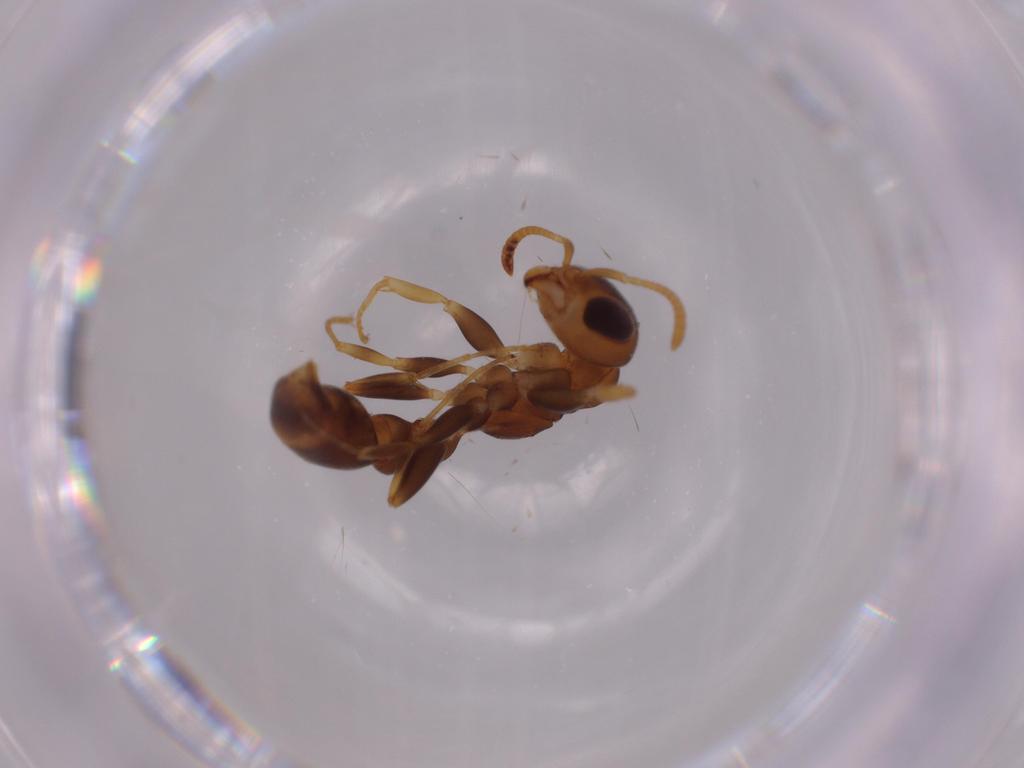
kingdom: Animalia
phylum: Arthropoda
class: Insecta
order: Hymenoptera
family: Formicidae
